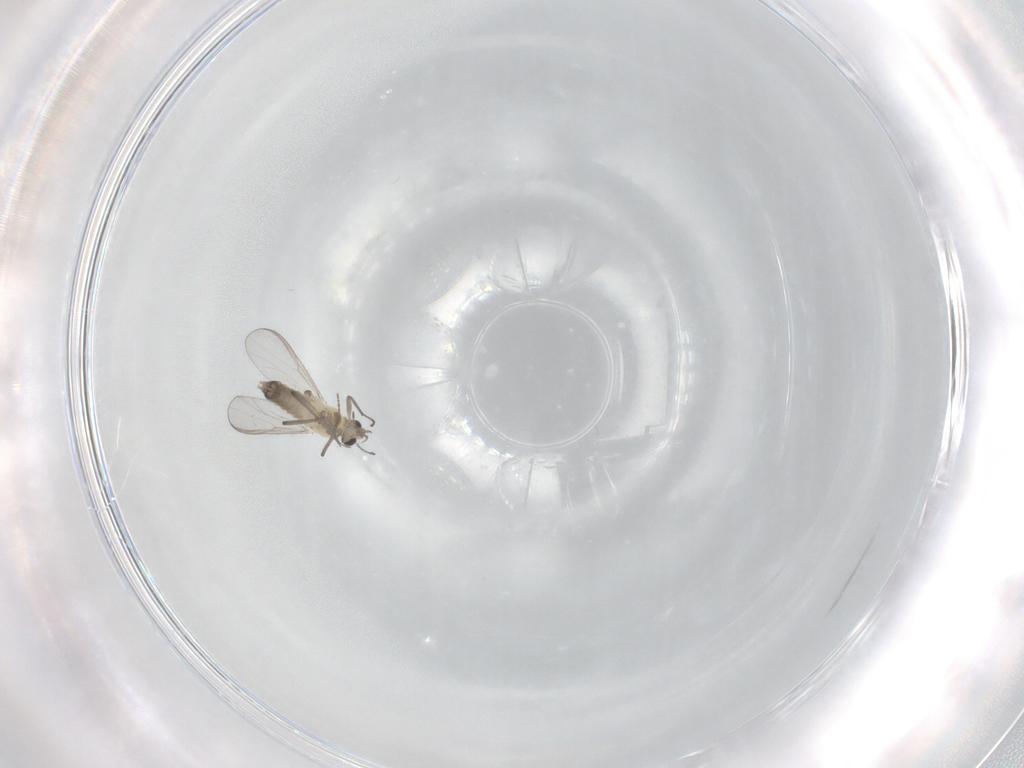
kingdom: Animalia
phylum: Arthropoda
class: Insecta
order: Diptera
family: Chironomidae
